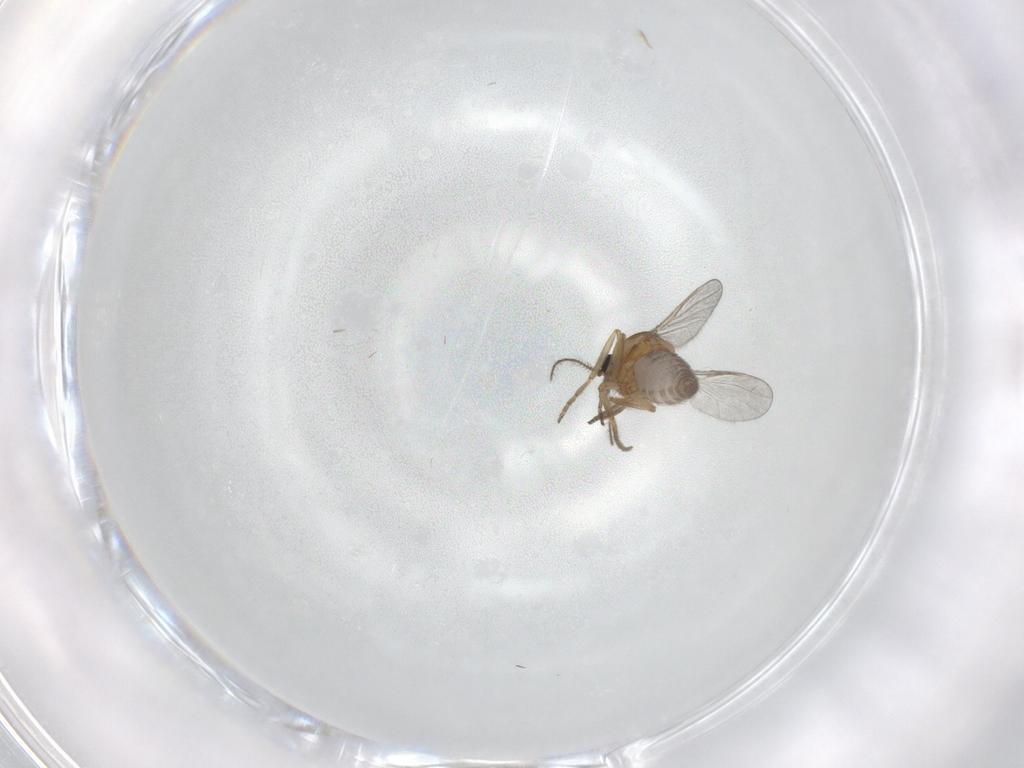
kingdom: Animalia
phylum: Arthropoda
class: Insecta
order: Diptera
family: Ceratopogonidae
